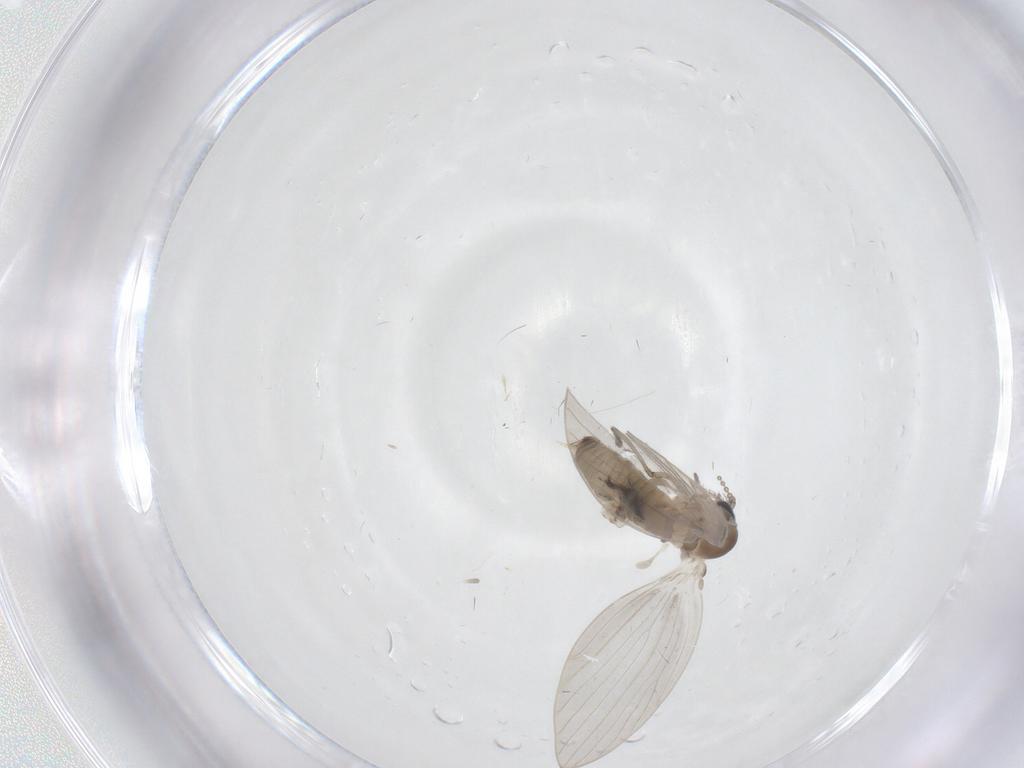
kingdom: Animalia
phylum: Arthropoda
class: Insecta
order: Diptera
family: Psychodidae
